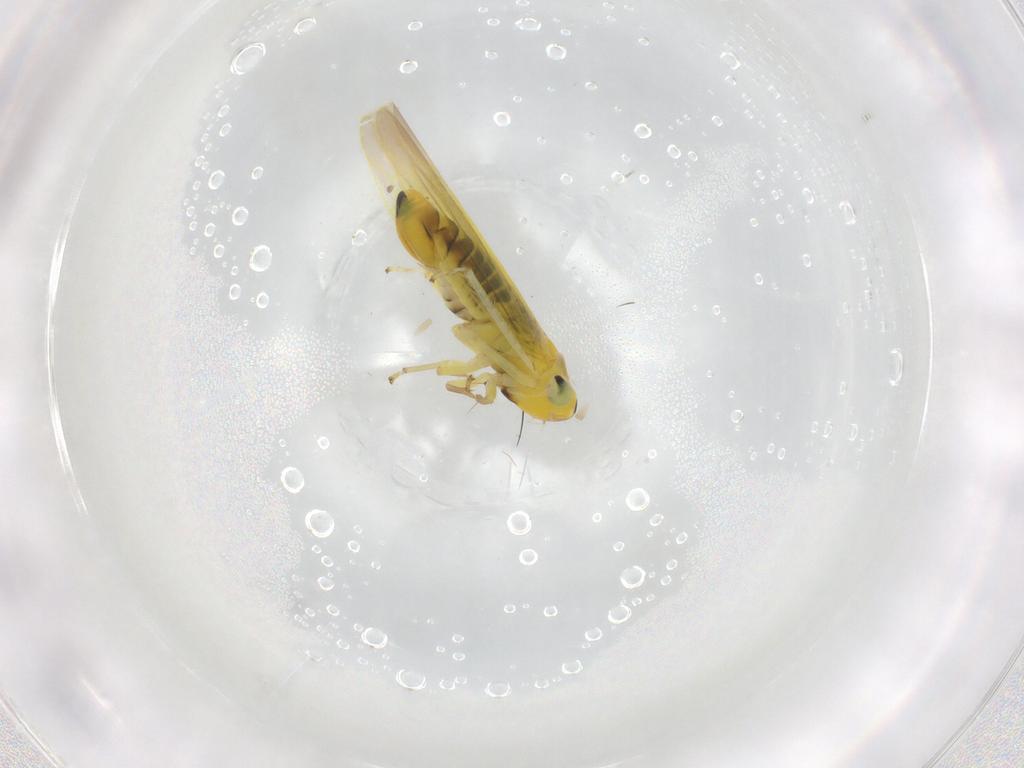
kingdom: Animalia
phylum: Arthropoda
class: Insecta
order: Hemiptera
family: Cicadellidae
